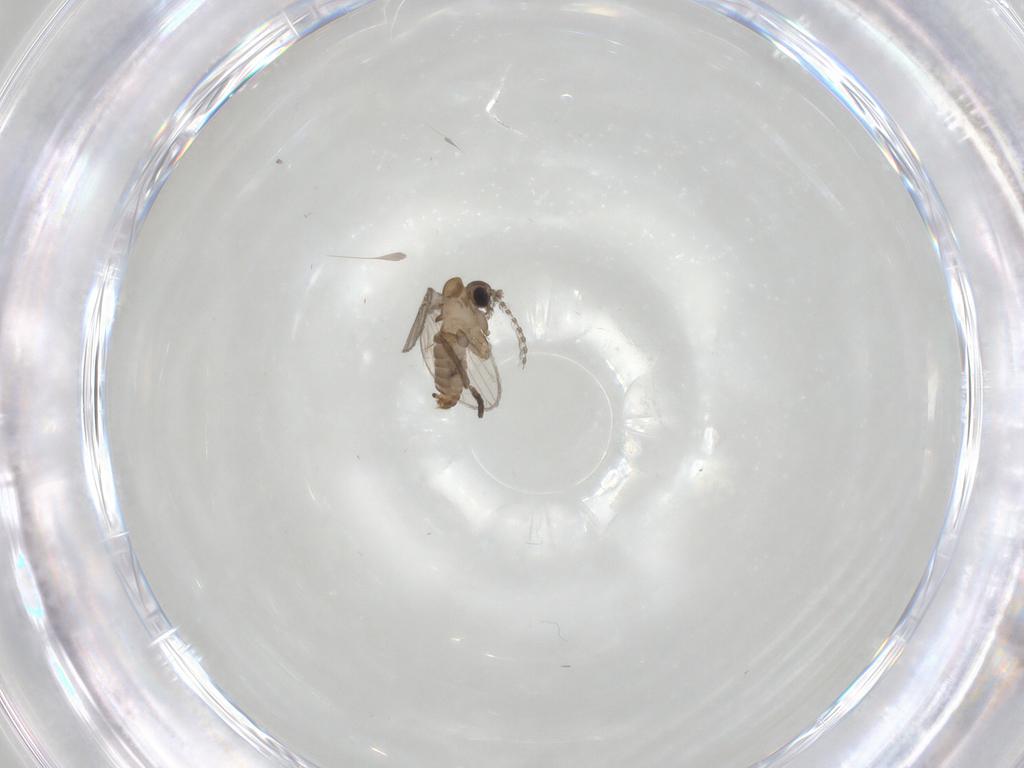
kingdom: Animalia
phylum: Arthropoda
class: Insecta
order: Diptera
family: Psychodidae
